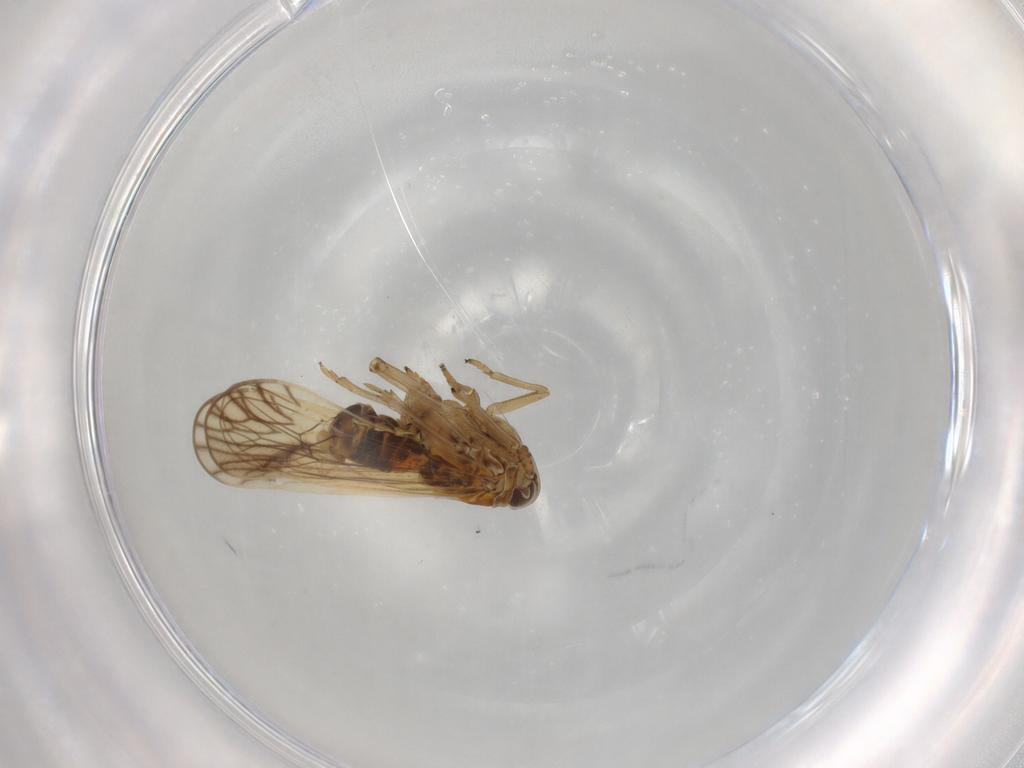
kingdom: Animalia
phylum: Arthropoda
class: Insecta
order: Hemiptera
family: Delphacidae
